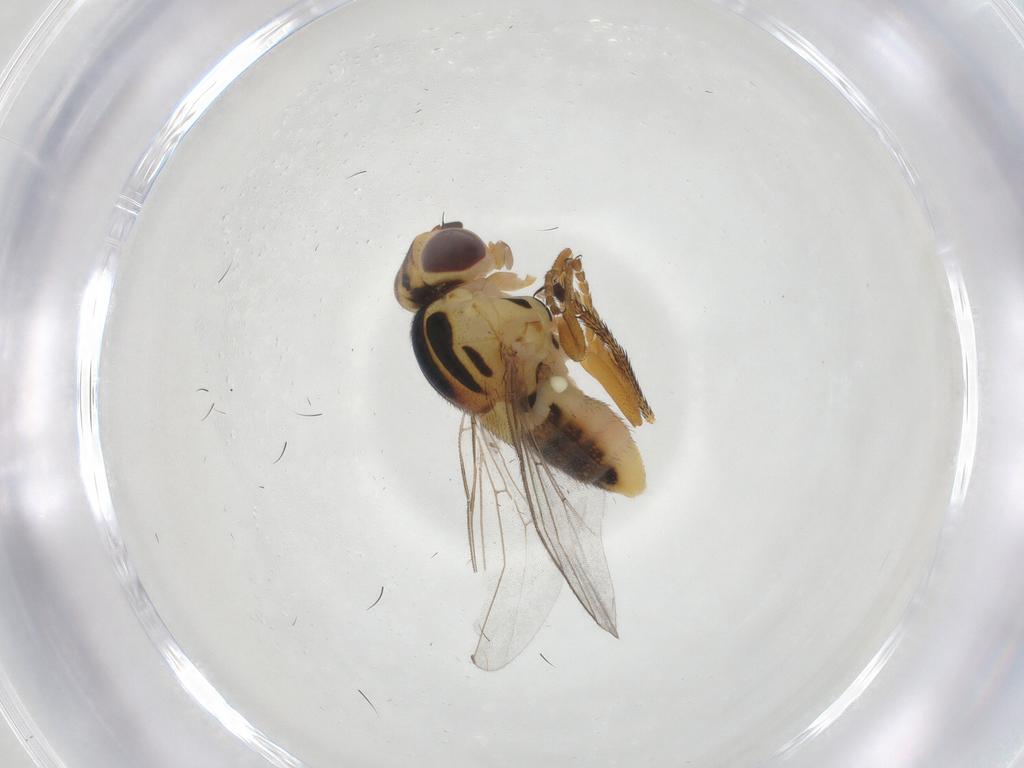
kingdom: Animalia
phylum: Arthropoda
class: Insecta
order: Diptera
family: Chloropidae
